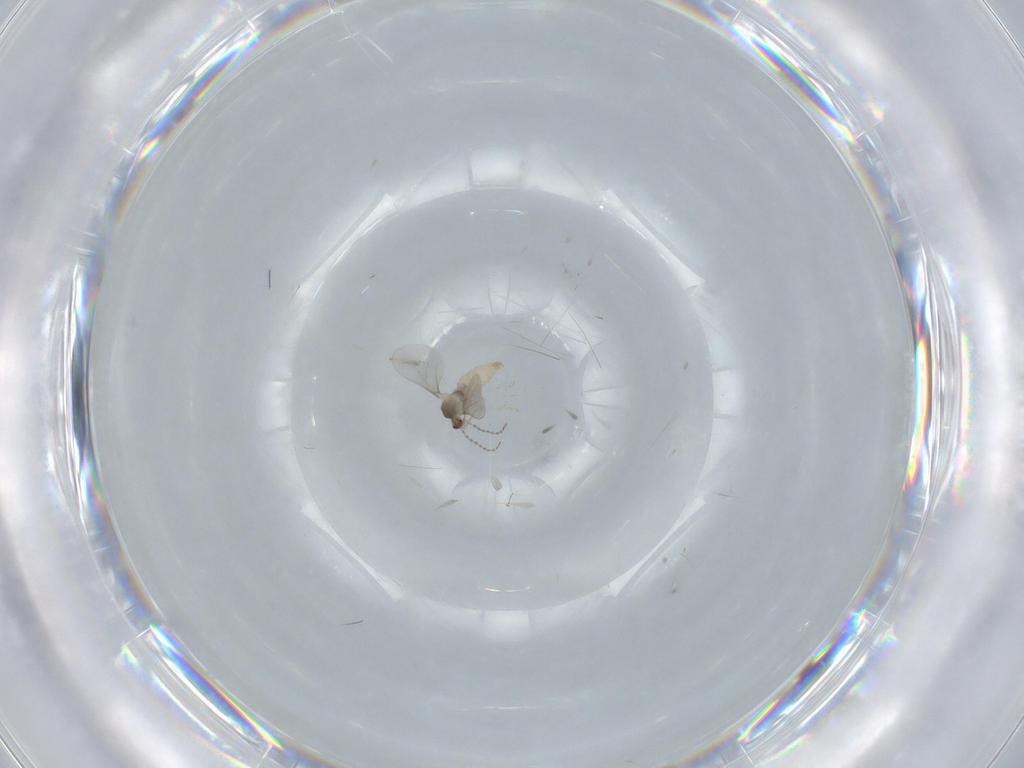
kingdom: Animalia
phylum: Arthropoda
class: Insecta
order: Diptera
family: Cecidomyiidae
